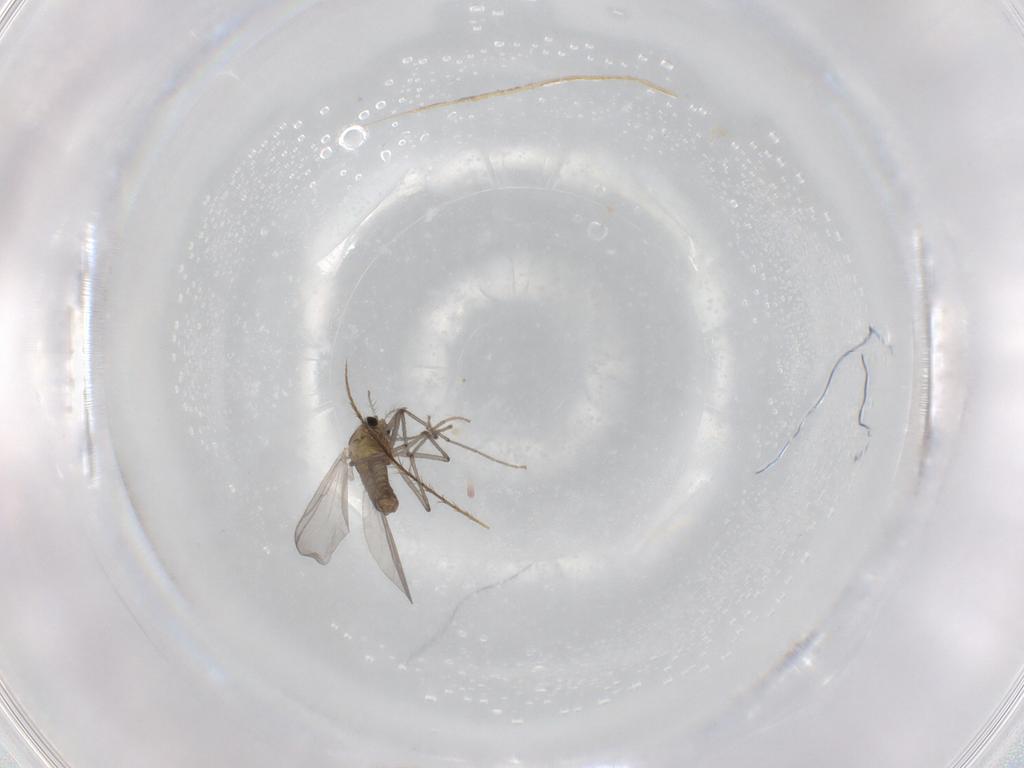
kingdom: Animalia
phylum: Arthropoda
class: Insecta
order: Diptera
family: Chironomidae
